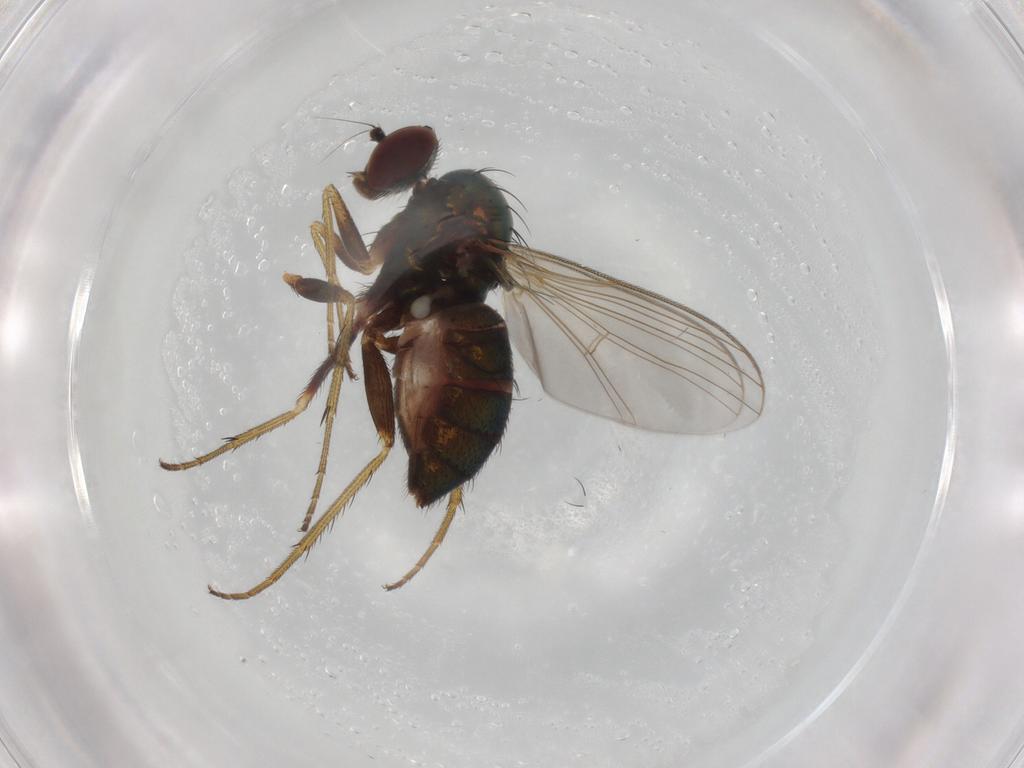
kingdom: Animalia
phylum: Arthropoda
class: Insecta
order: Diptera
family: Dolichopodidae
